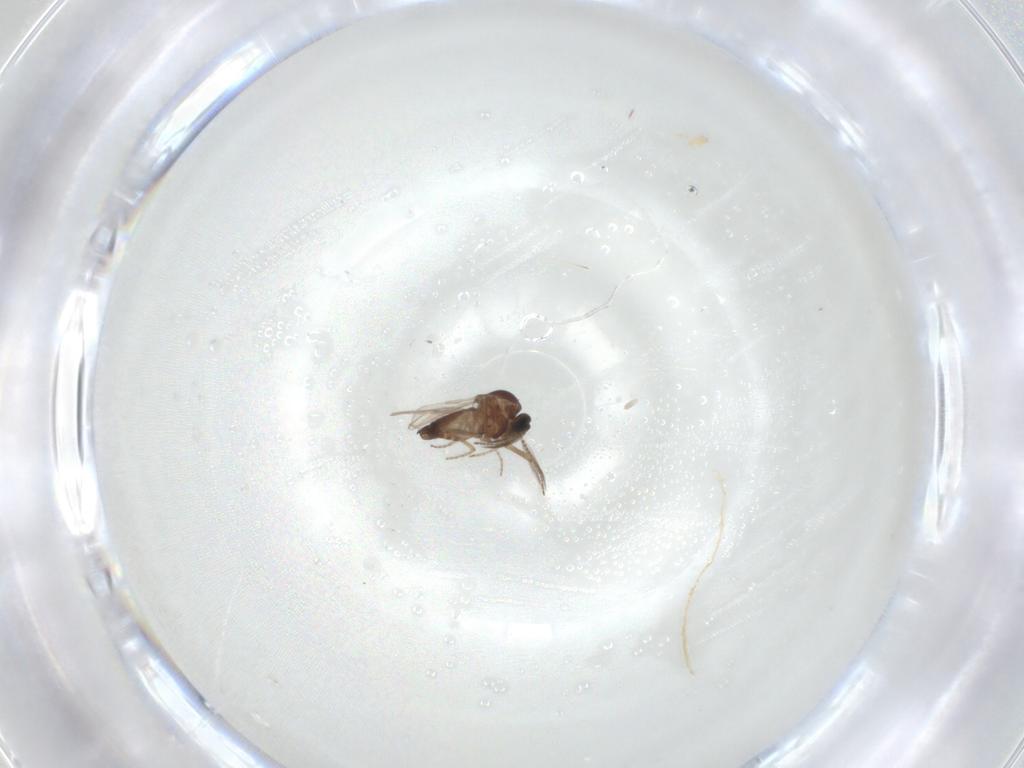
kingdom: Animalia
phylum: Arthropoda
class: Insecta
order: Diptera
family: Ceratopogonidae
